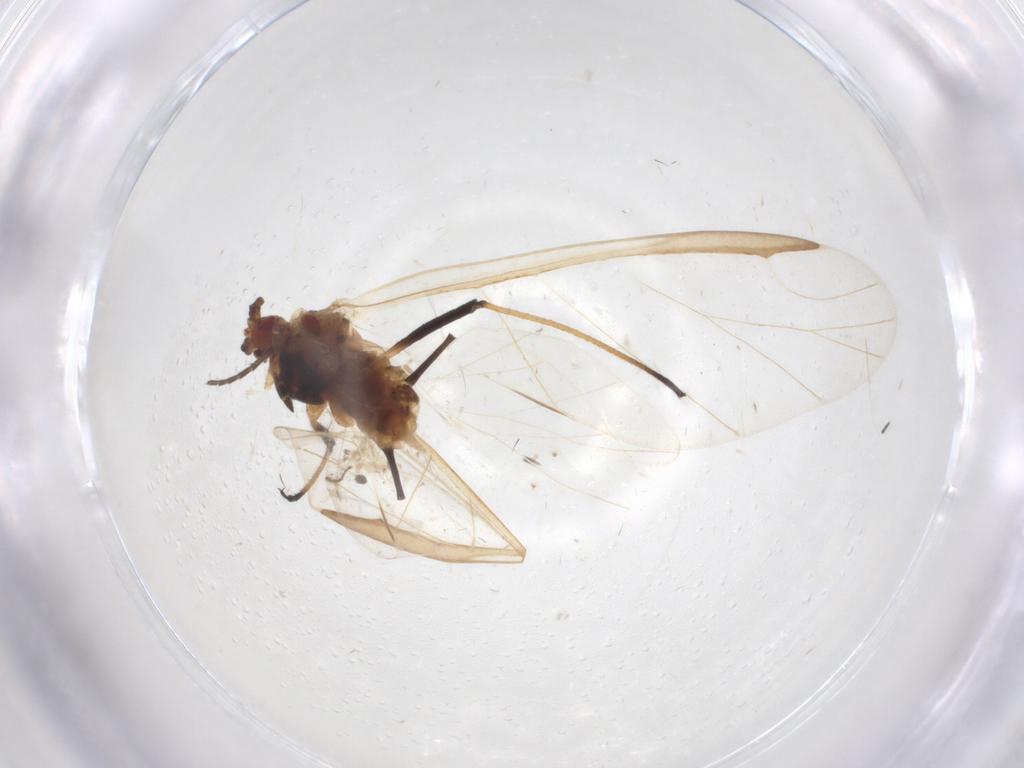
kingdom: Animalia
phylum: Arthropoda
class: Insecta
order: Hemiptera
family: Aphididae
